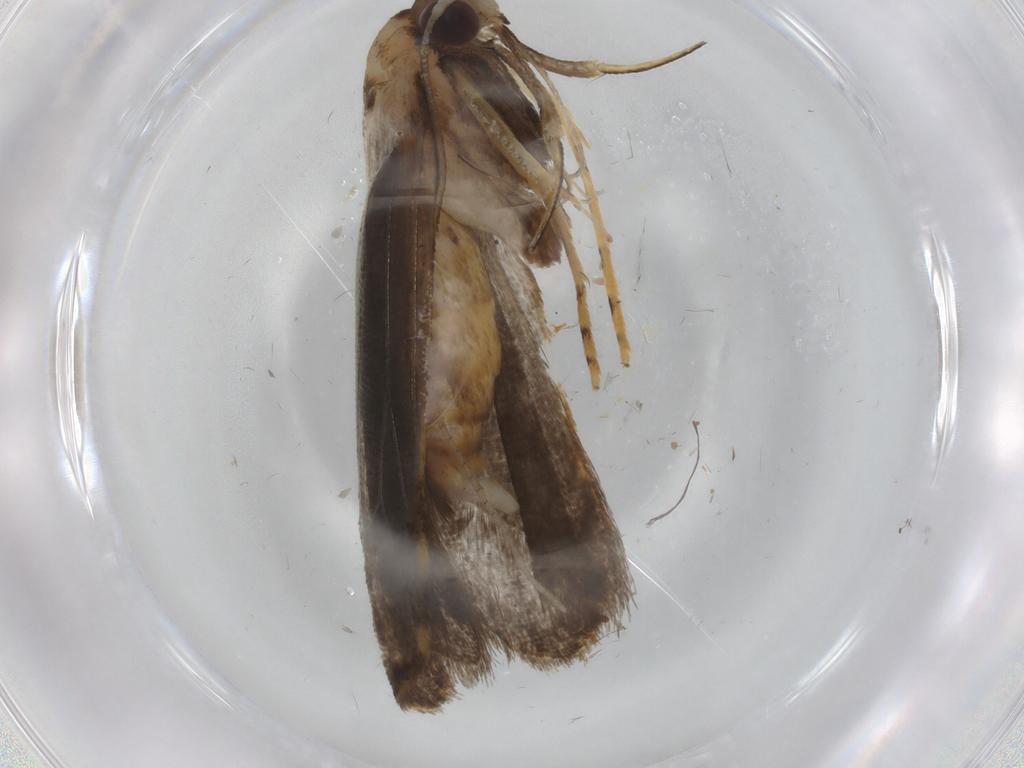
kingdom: Animalia
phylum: Arthropoda
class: Insecta
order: Lepidoptera
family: Cosmopterigidae
